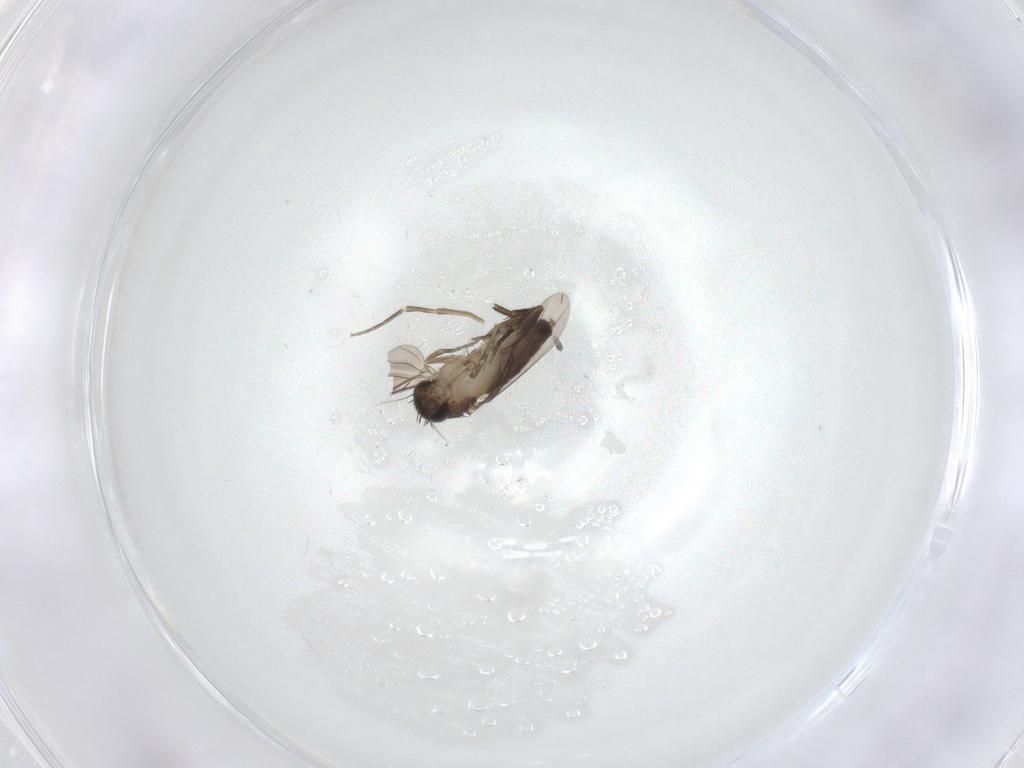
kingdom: Animalia
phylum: Arthropoda
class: Insecta
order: Diptera
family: Phoridae
